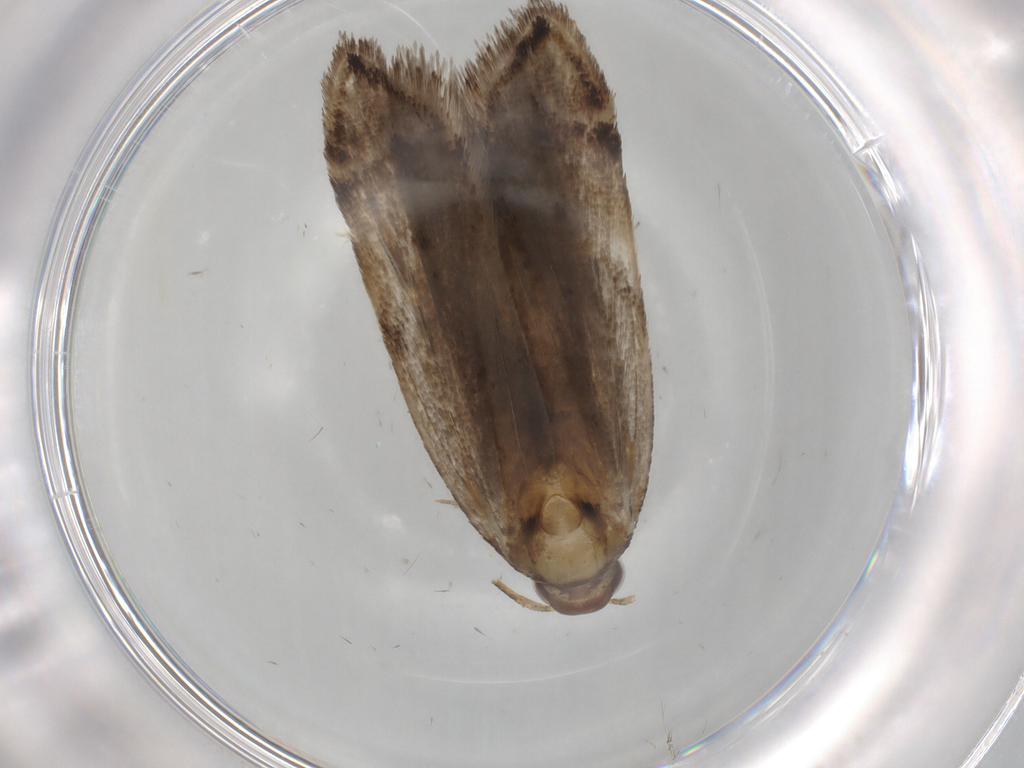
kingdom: Animalia
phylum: Arthropoda
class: Insecta
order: Lepidoptera
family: Gelechiidae
